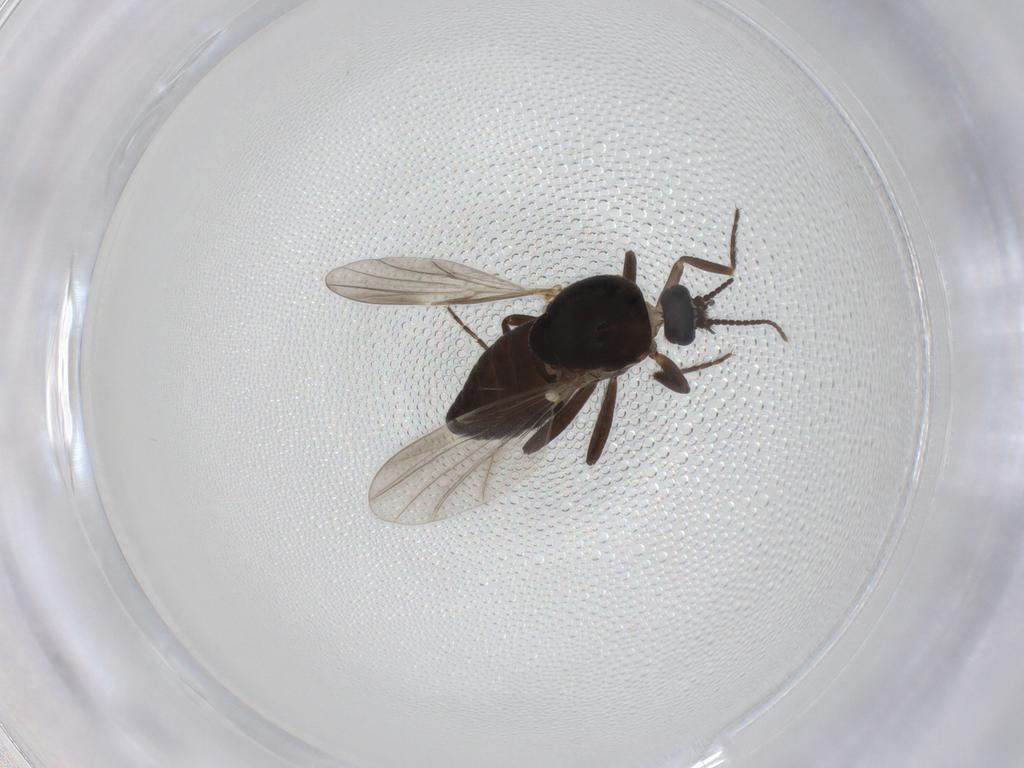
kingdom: Animalia
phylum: Arthropoda
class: Insecta
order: Diptera
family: Ceratopogonidae
